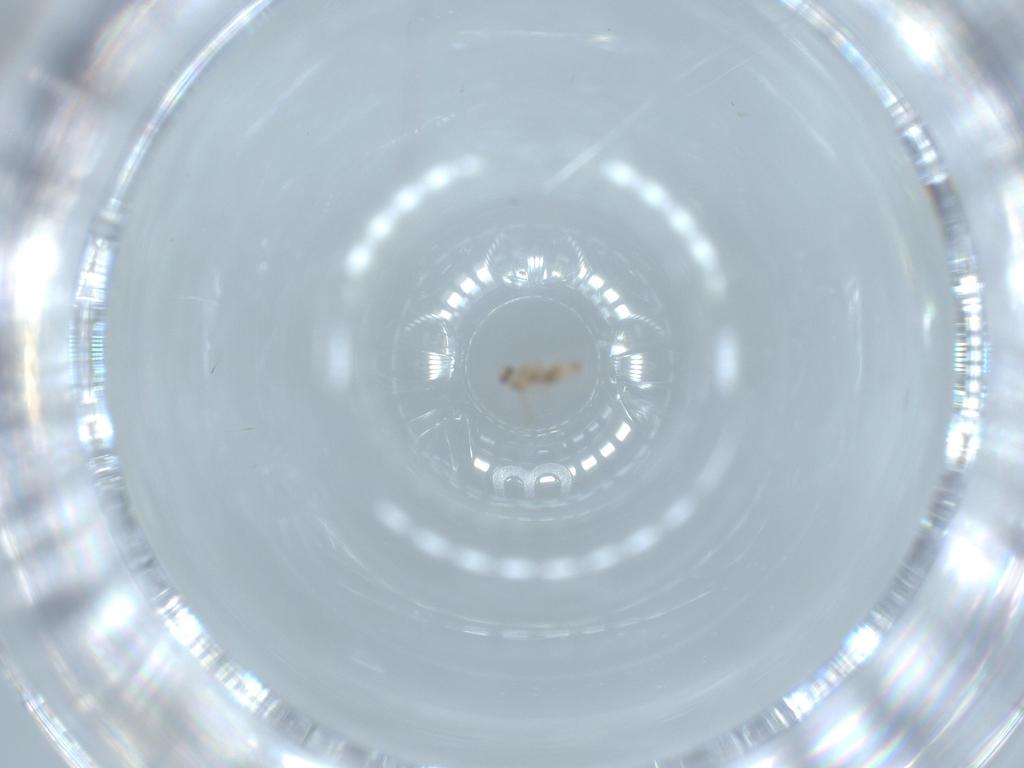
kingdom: Animalia
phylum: Arthropoda
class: Insecta
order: Diptera
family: Cecidomyiidae
